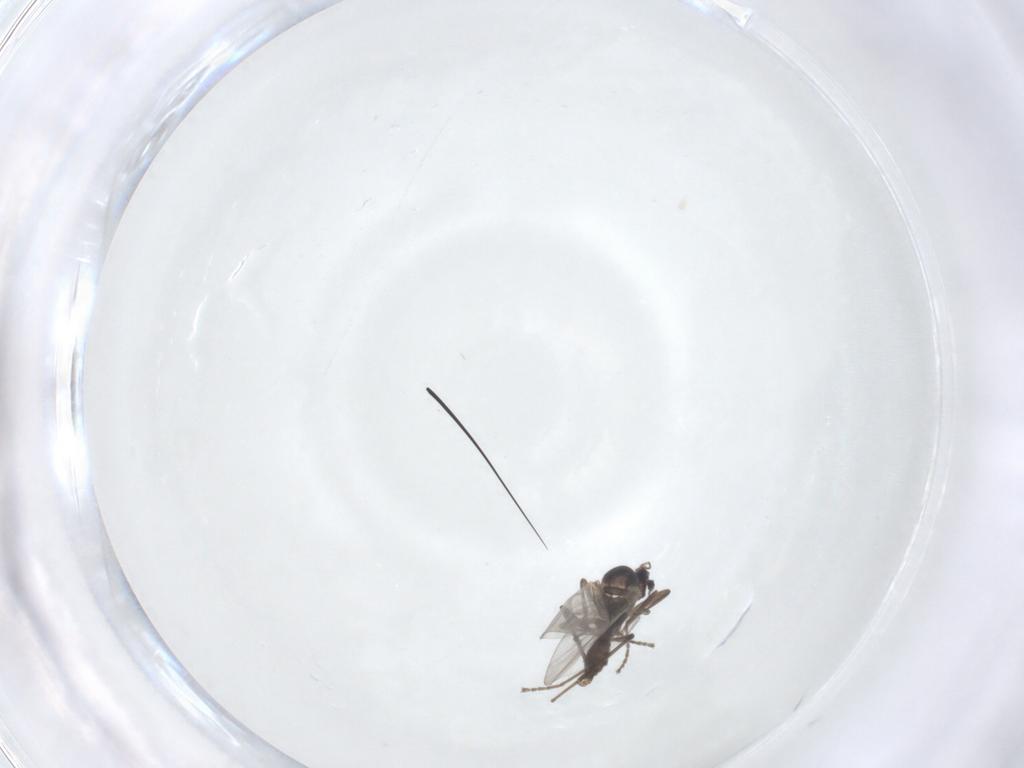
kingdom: Animalia
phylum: Arthropoda
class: Insecta
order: Diptera
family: Cecidomyiidae
